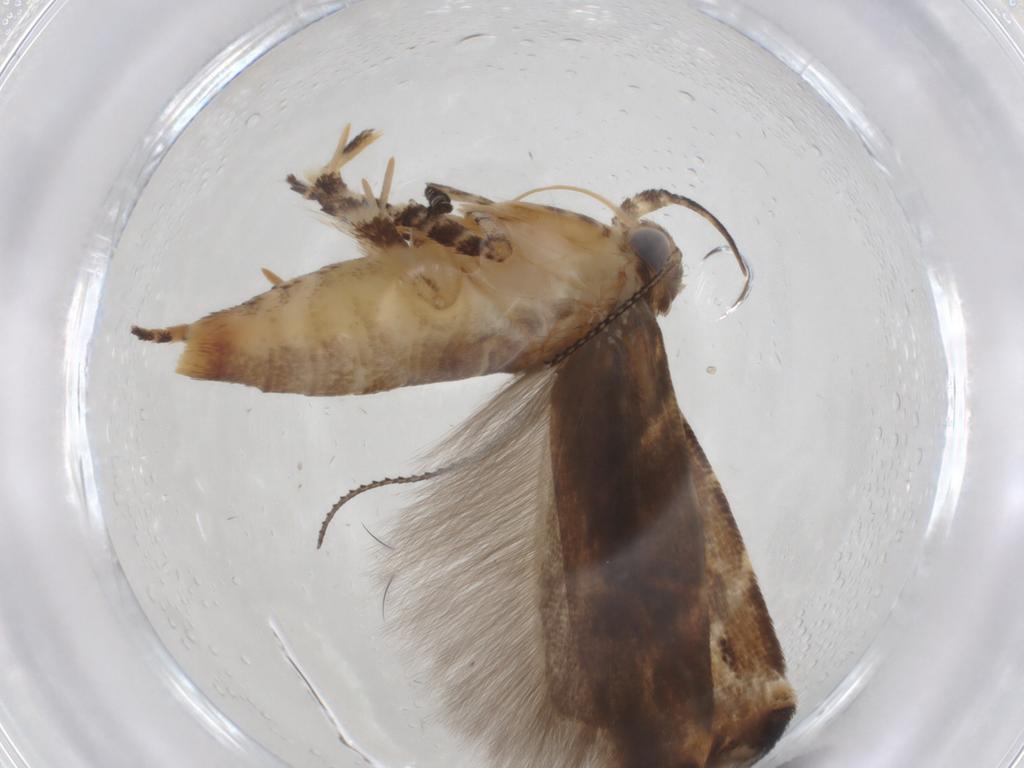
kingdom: Animalia
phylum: Arthropoda
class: Insecta
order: Lepidoptera
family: Gelechiidae
